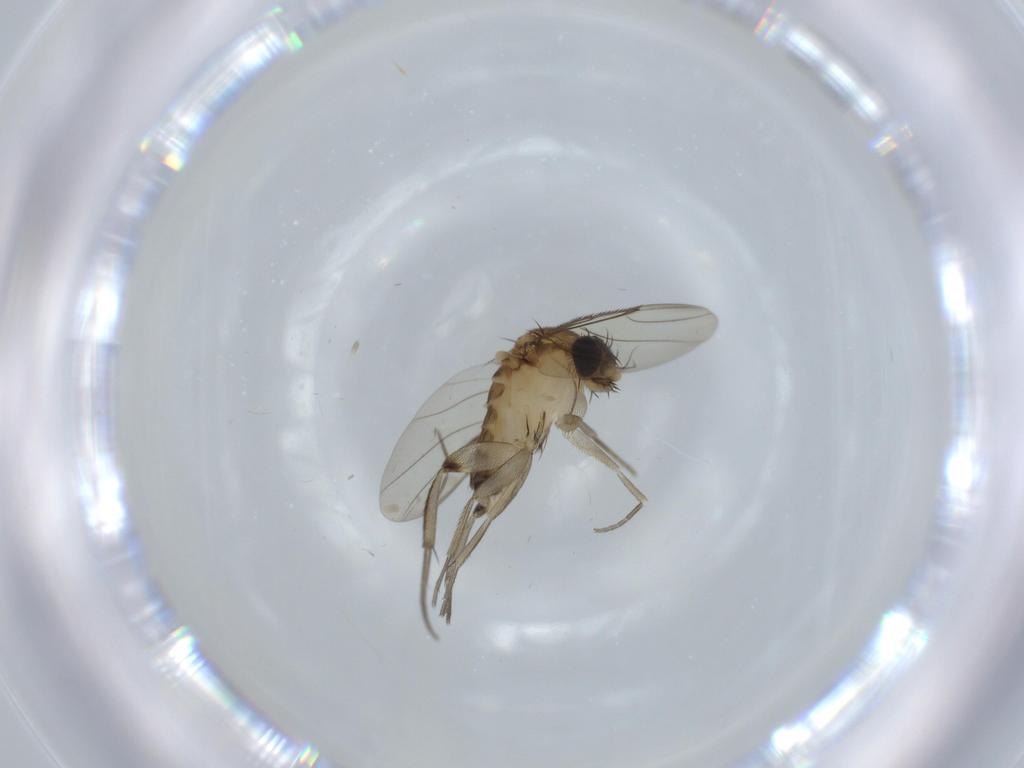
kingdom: Animalia
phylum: Arthropoda
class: Insecta
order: Diptera
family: Phoridae
